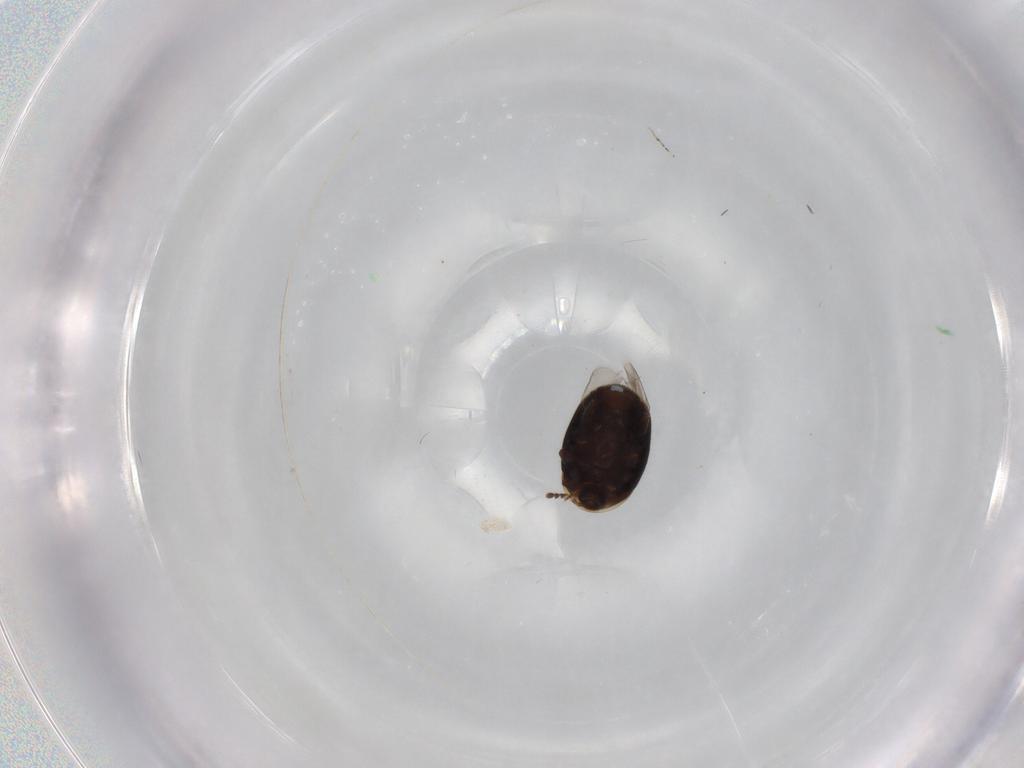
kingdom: Animalia
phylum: Arthropoda
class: Insecta
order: Coleoptera
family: Corylophidae
